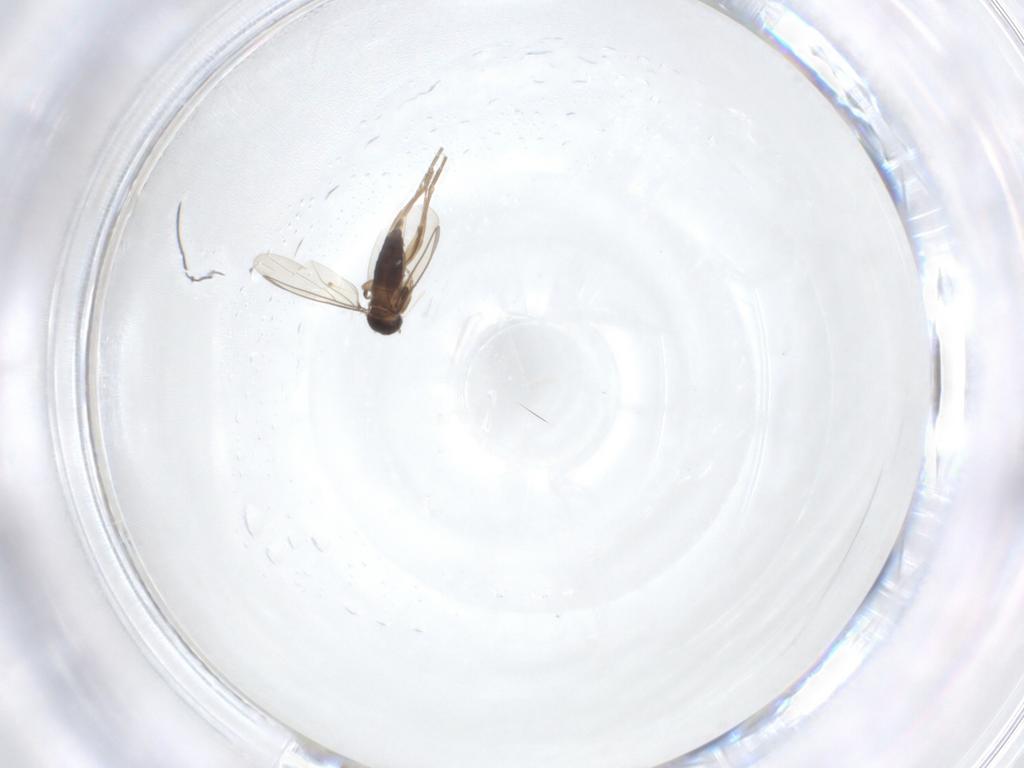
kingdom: Animalia
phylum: Arthropoda
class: Insecta
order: Diptera
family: Phoridae
